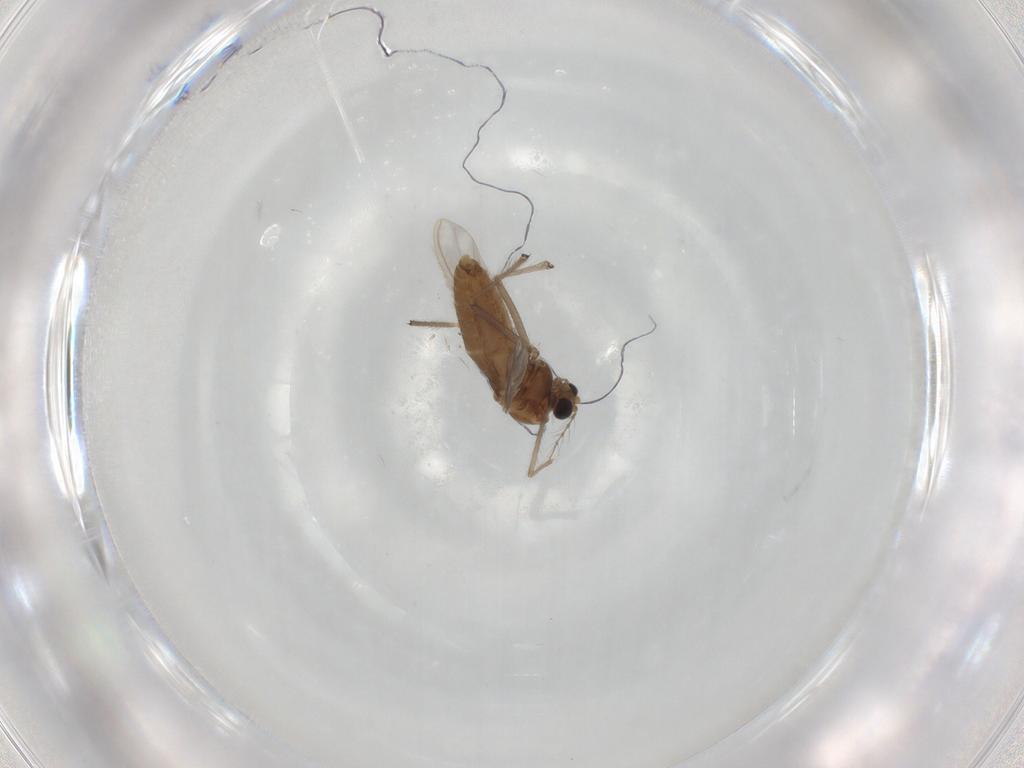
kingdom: Animalia
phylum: Arthropoda
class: Insecta
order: Diptera
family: Chironomidae
